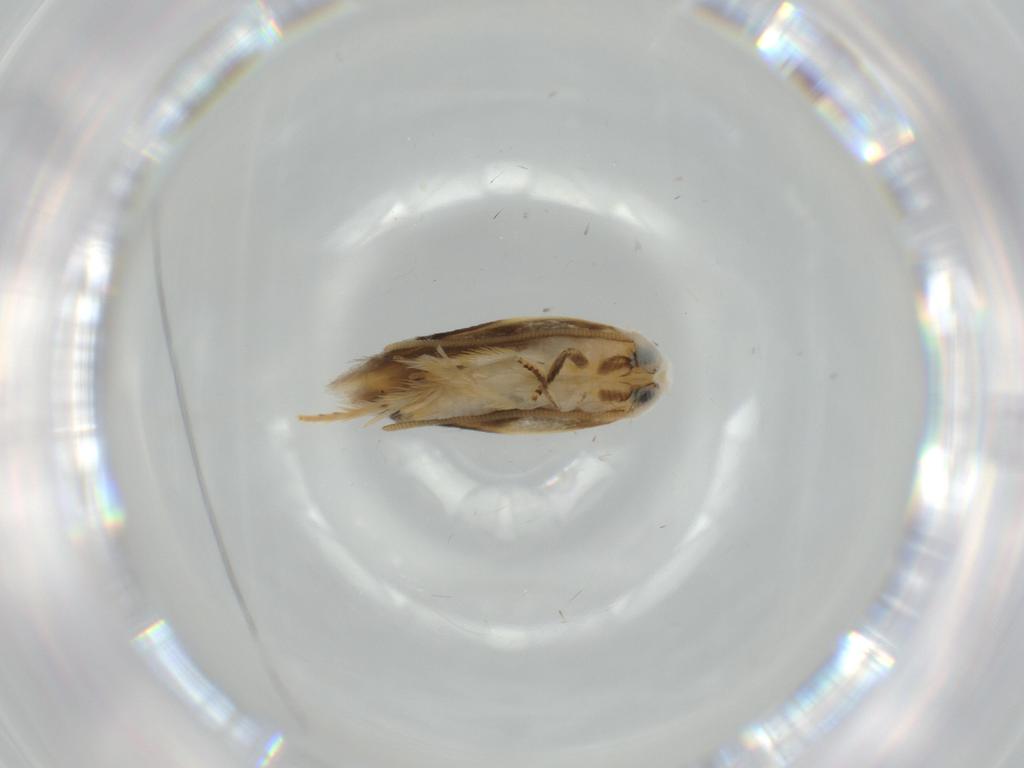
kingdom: Animalia
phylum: Arthropoda
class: Insecta
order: Lepidoptera
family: Opostegidae
